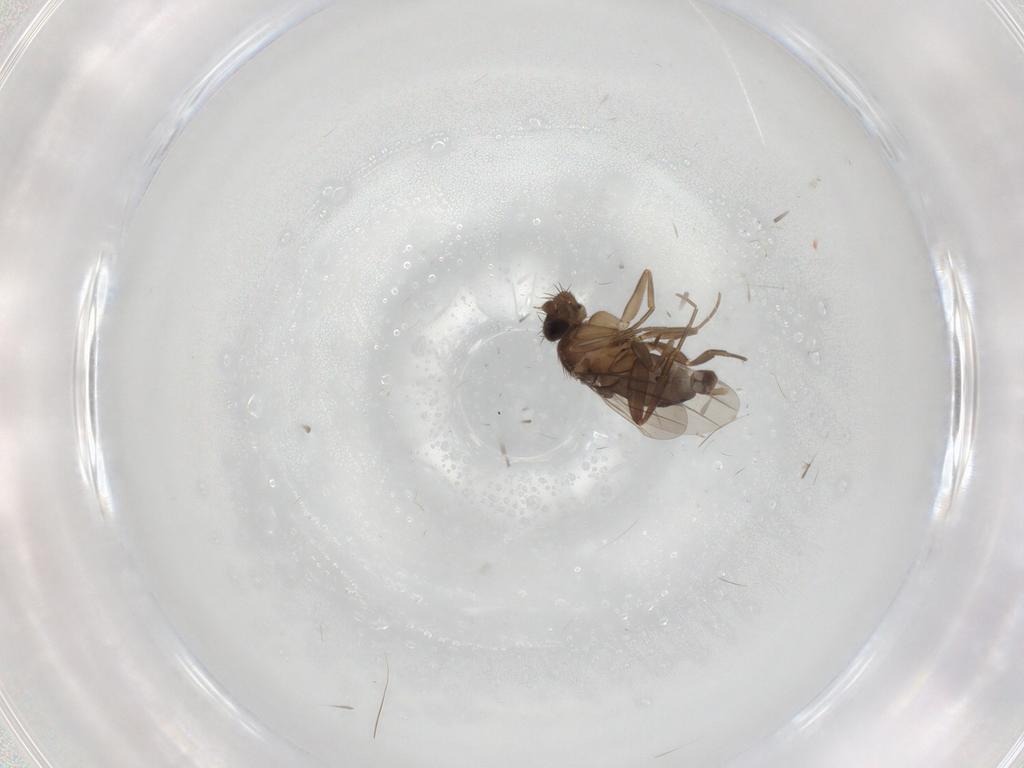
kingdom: Animalia
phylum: Arthropoda
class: Insecta
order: Diptera
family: Phoridae
